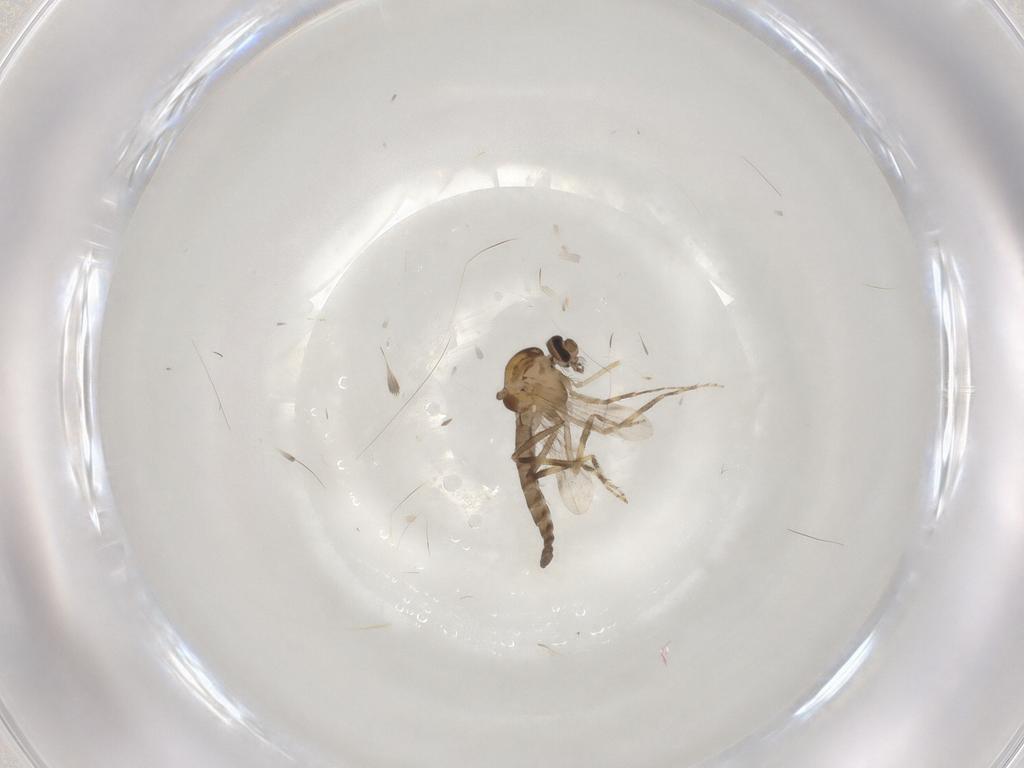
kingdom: Animalia
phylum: Arthropoda
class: Insecta
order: Diptera
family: Ceratopogonidae
